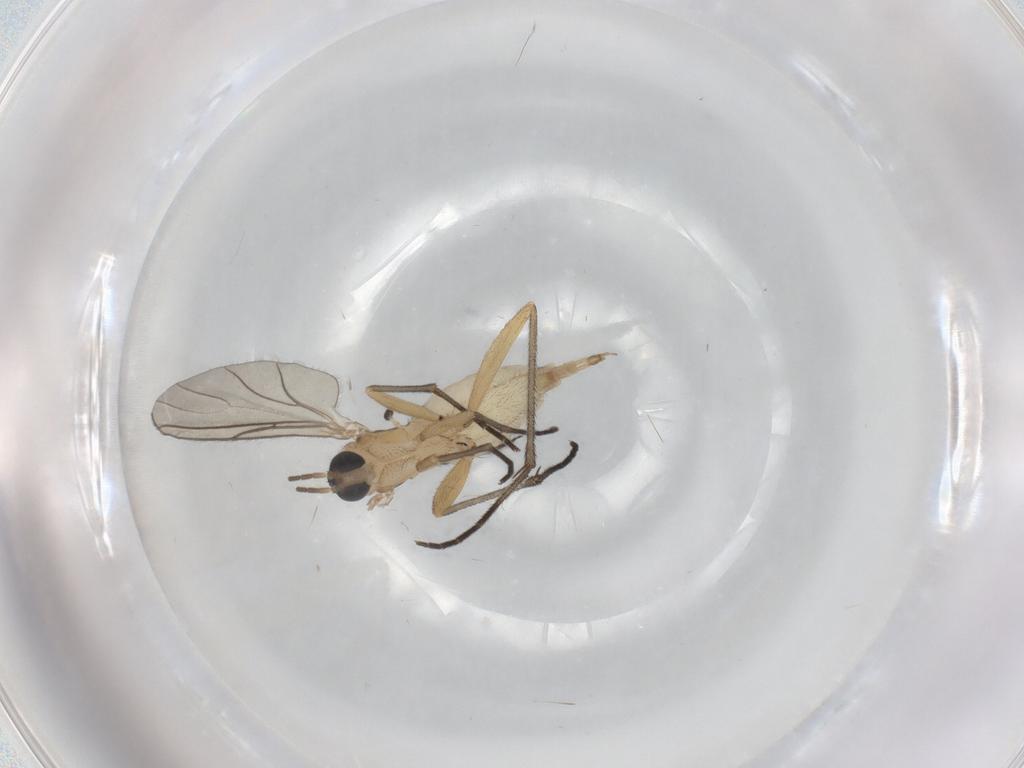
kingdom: Animalia
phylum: Arthropoda
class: Insecta
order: Diptera
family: Sciaridae
